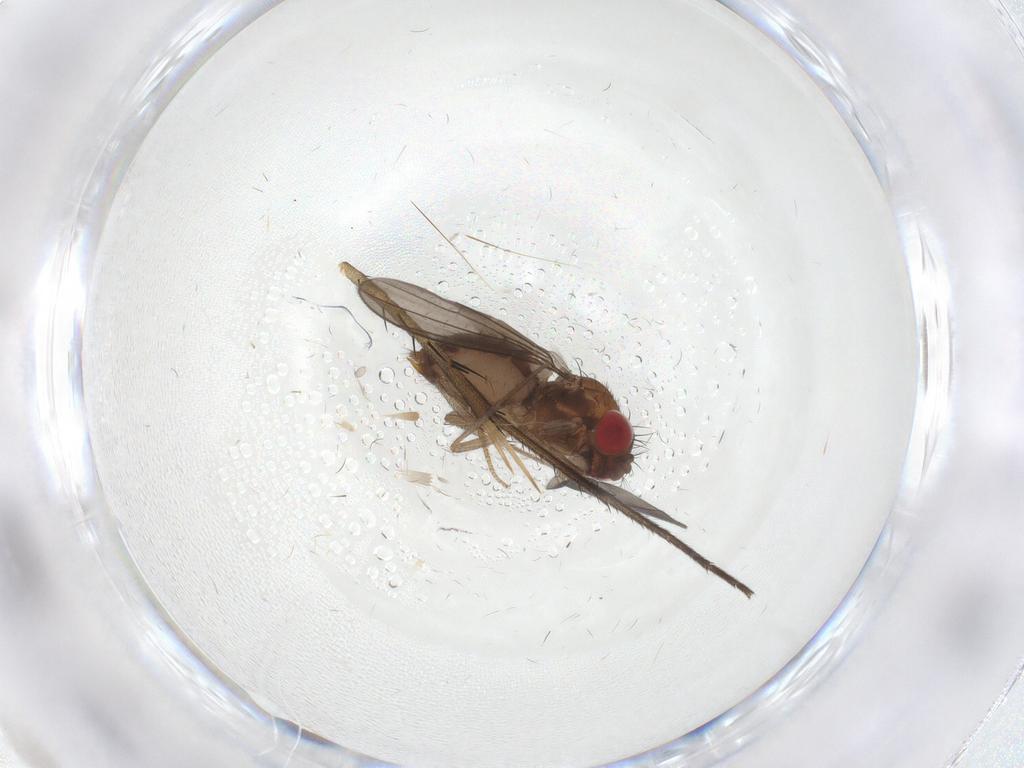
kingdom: Animalia
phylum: Arthropoda
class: Insecta
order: Diptera
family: Drosophilidae
